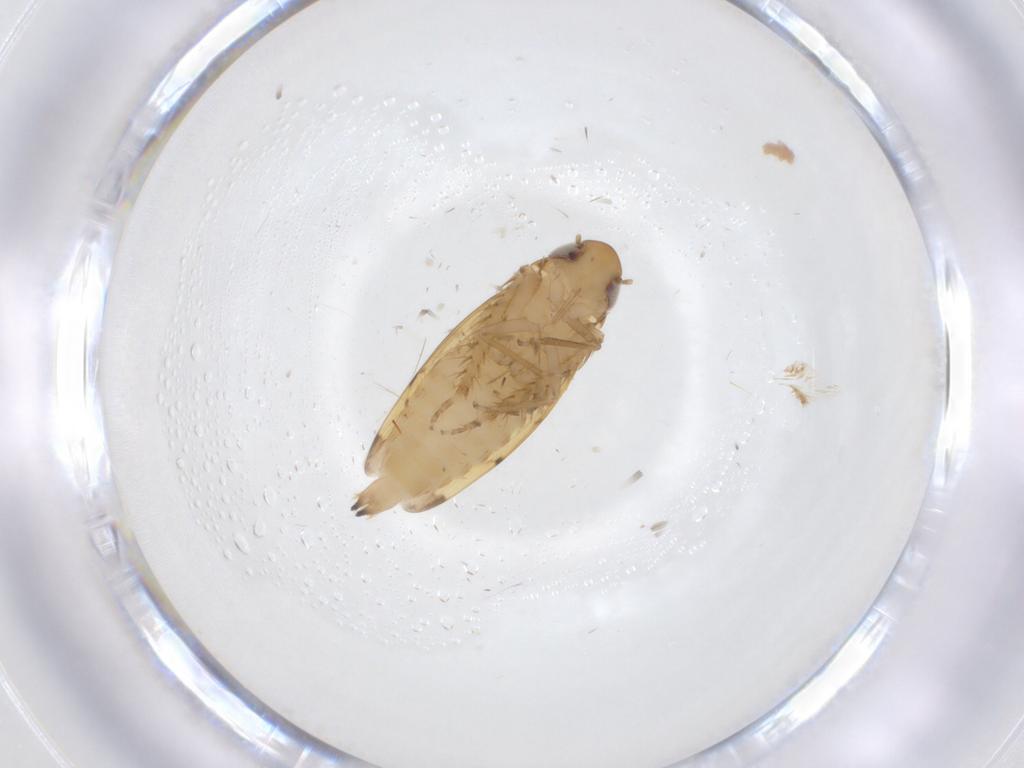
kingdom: Animalia
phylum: Arthropoda
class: Insecta
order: Hemiptera
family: Cicadellidae
